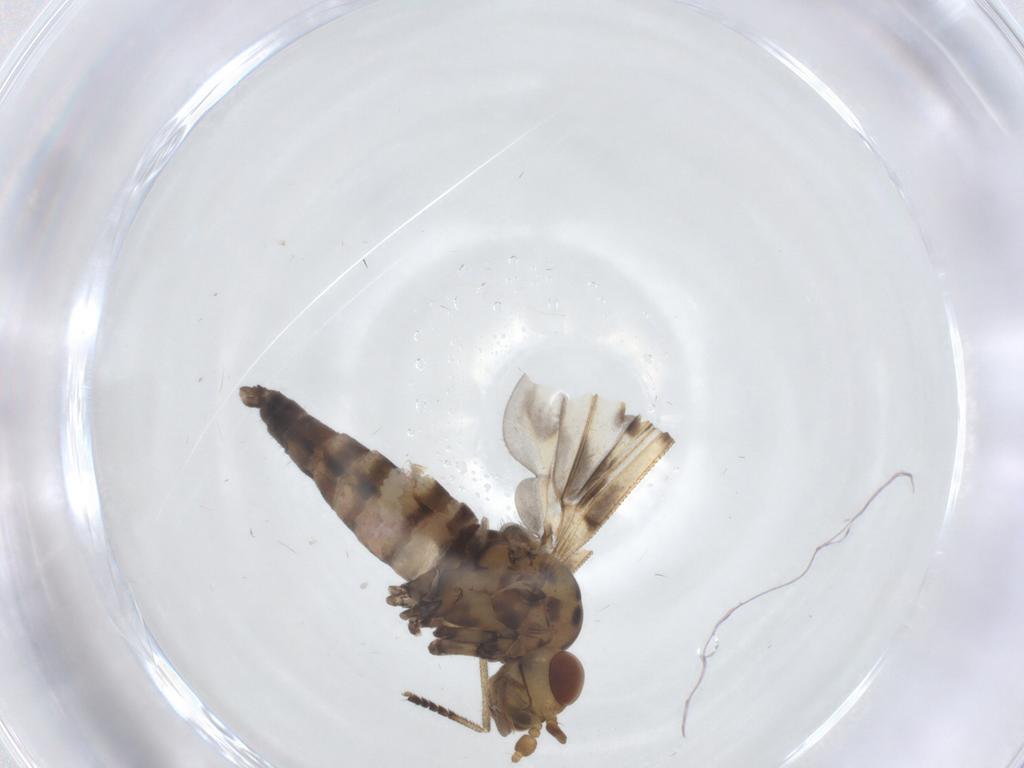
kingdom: Animalia
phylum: Arthropoda
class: Insecta
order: Diptera
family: Austroleptidae
